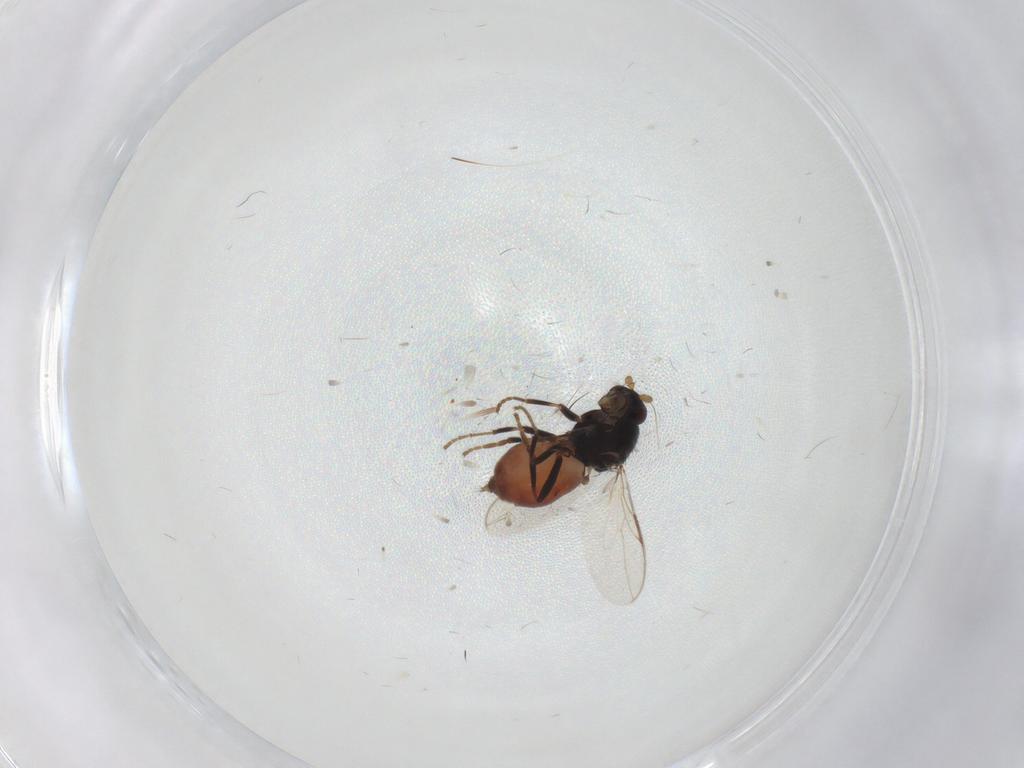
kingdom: Animalia
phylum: Arthropoda
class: Insecta
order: Diptera
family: Sphaeroceridae
